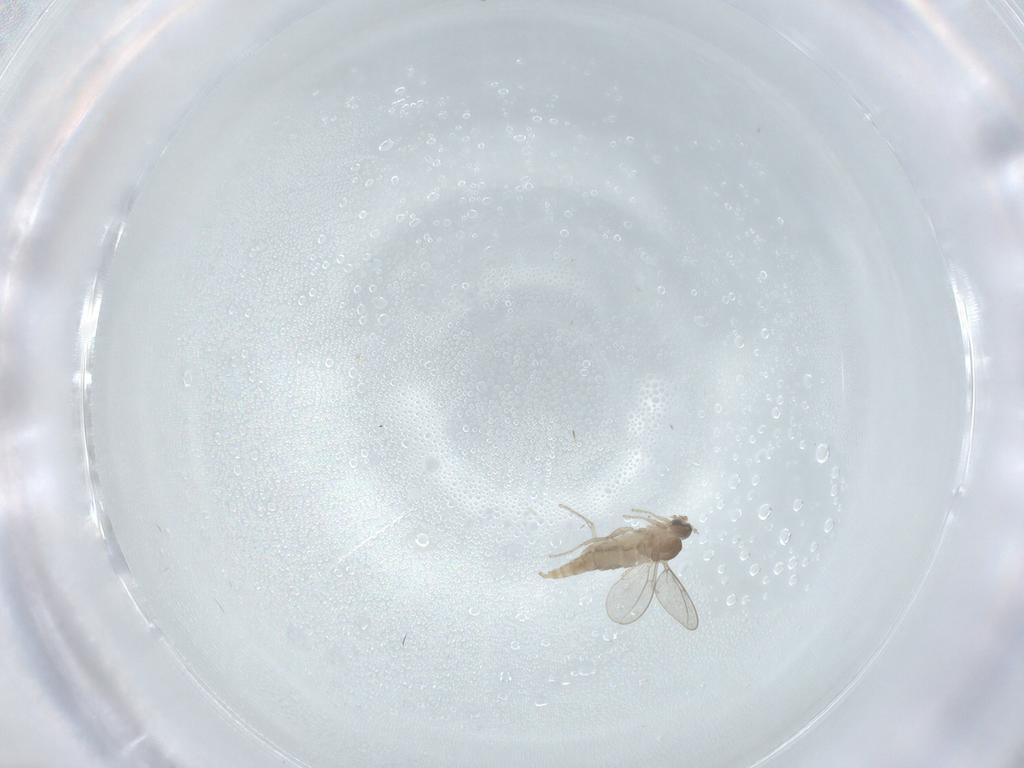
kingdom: Animalia
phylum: Arthropoda
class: Insecta
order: Diptera
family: Cecidomyiidae
